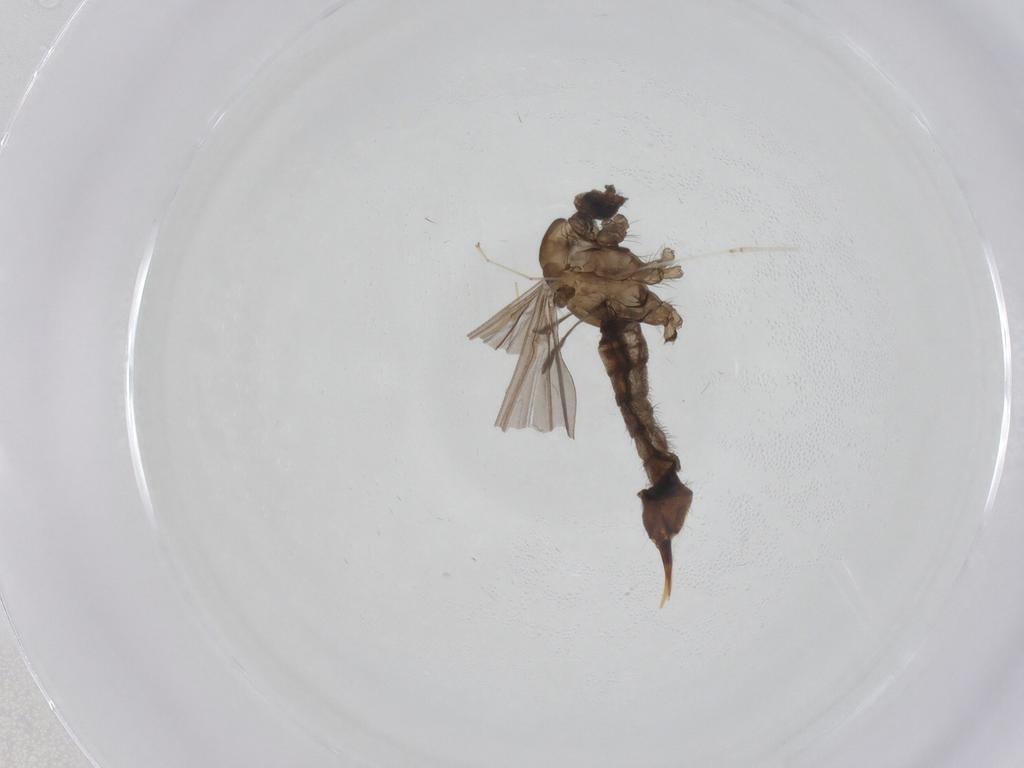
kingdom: Animalia
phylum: Arthropoda
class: Insecta
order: Diptera
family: Limoniidae
